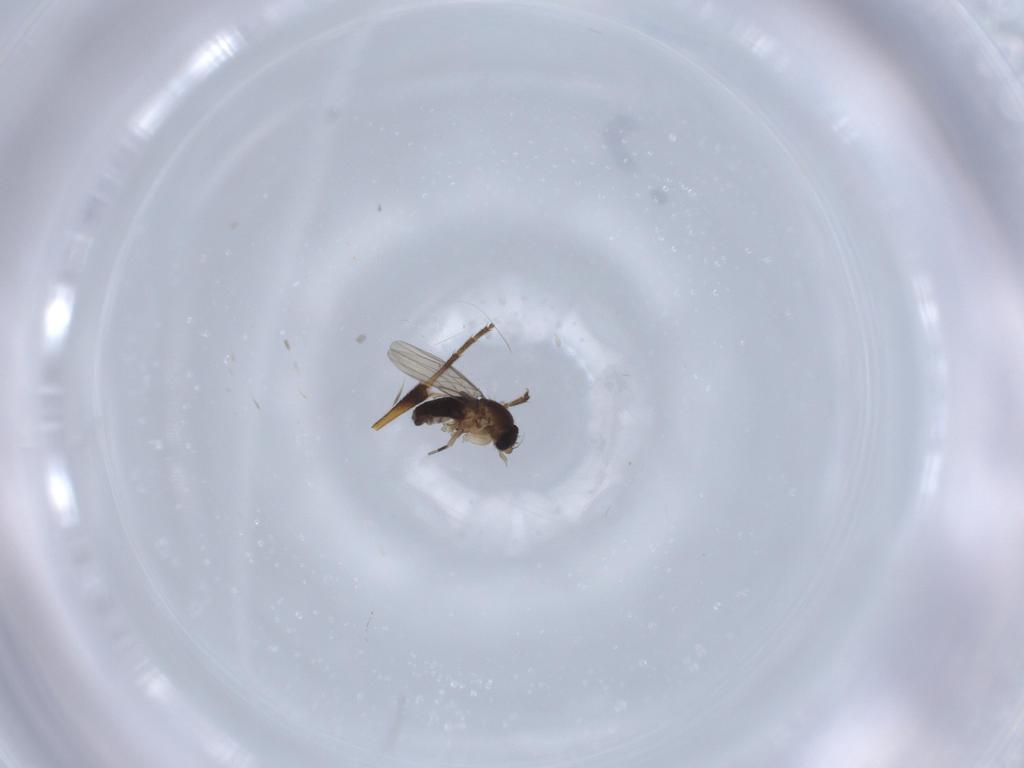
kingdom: Animalia
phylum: Arthropoda
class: Insecta
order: Diptera
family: Phoridae
